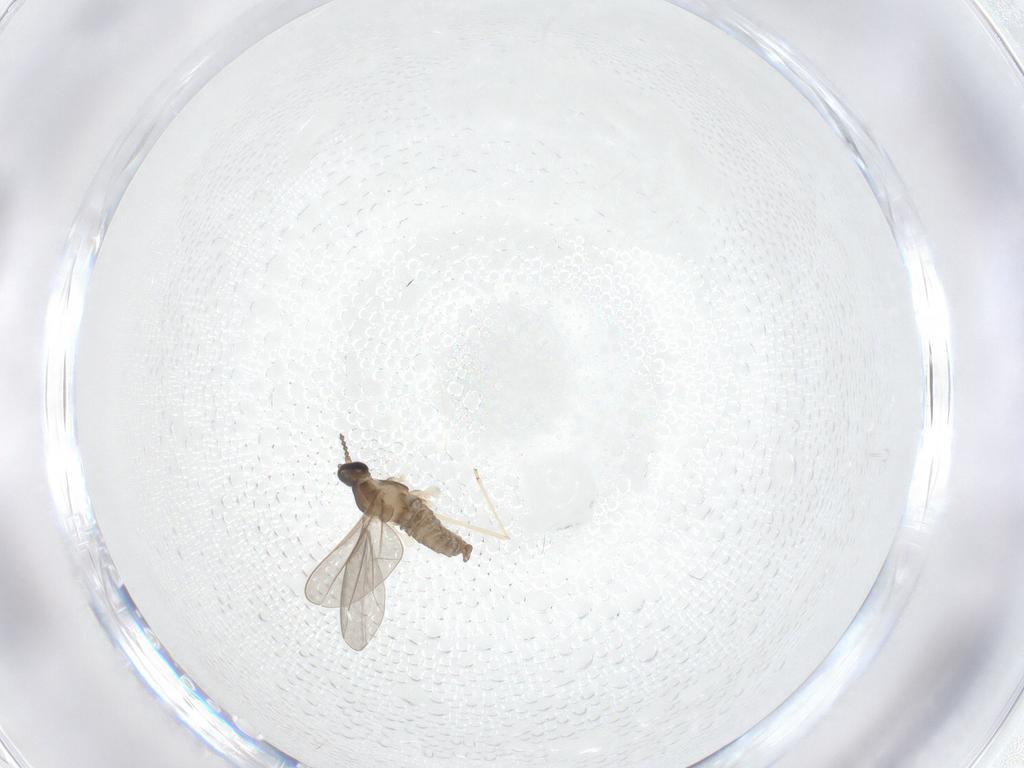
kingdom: Animalia
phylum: Arthropoda
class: Insecta
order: Diptera
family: Cecidomyiidae
